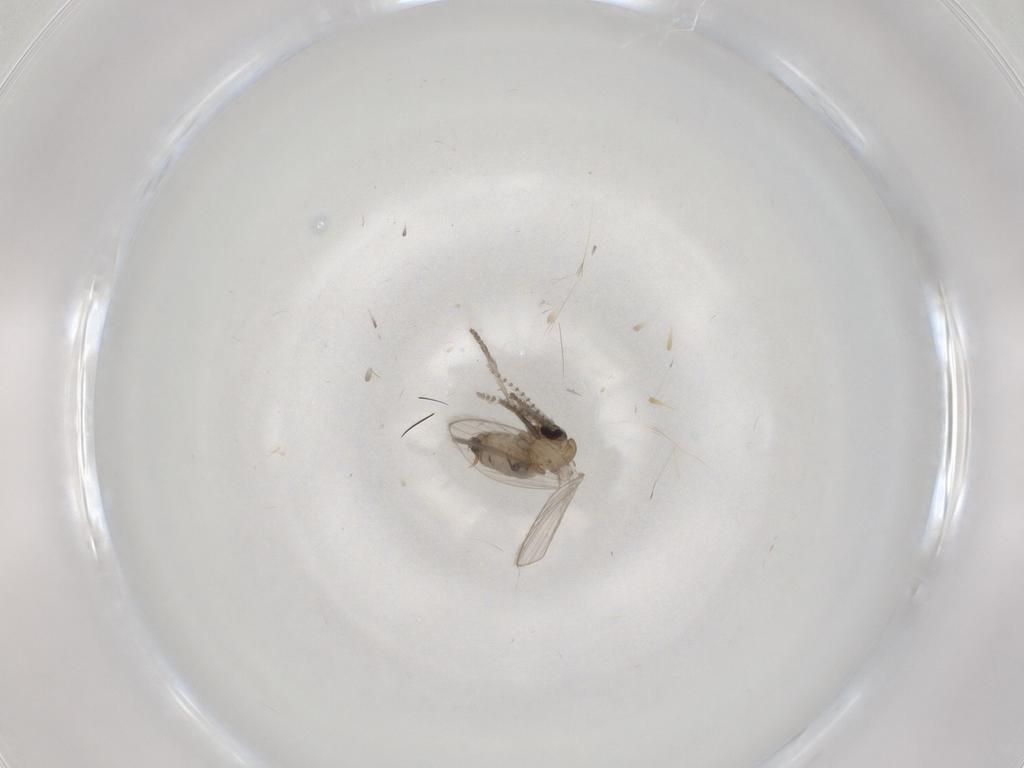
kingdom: Animalia
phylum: Arthropoda
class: Insecta
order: Diptera
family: Psychodidae
